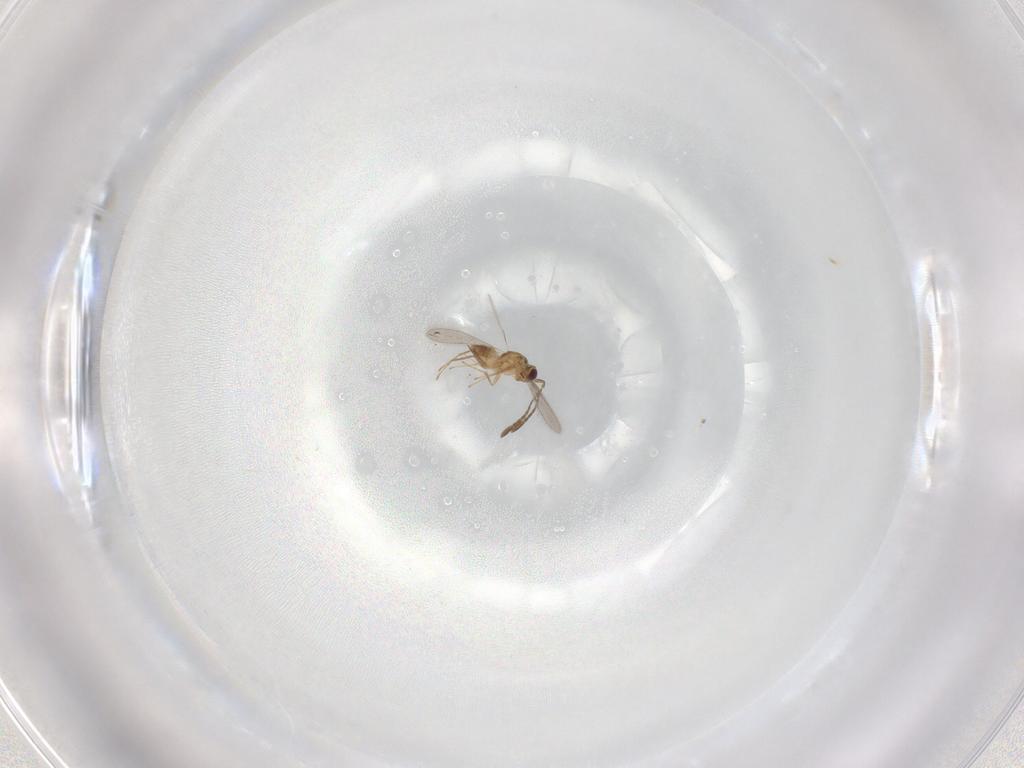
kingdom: Animalia
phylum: Arthropoda
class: Insecta
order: Hymenoptera
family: Mymaridae
